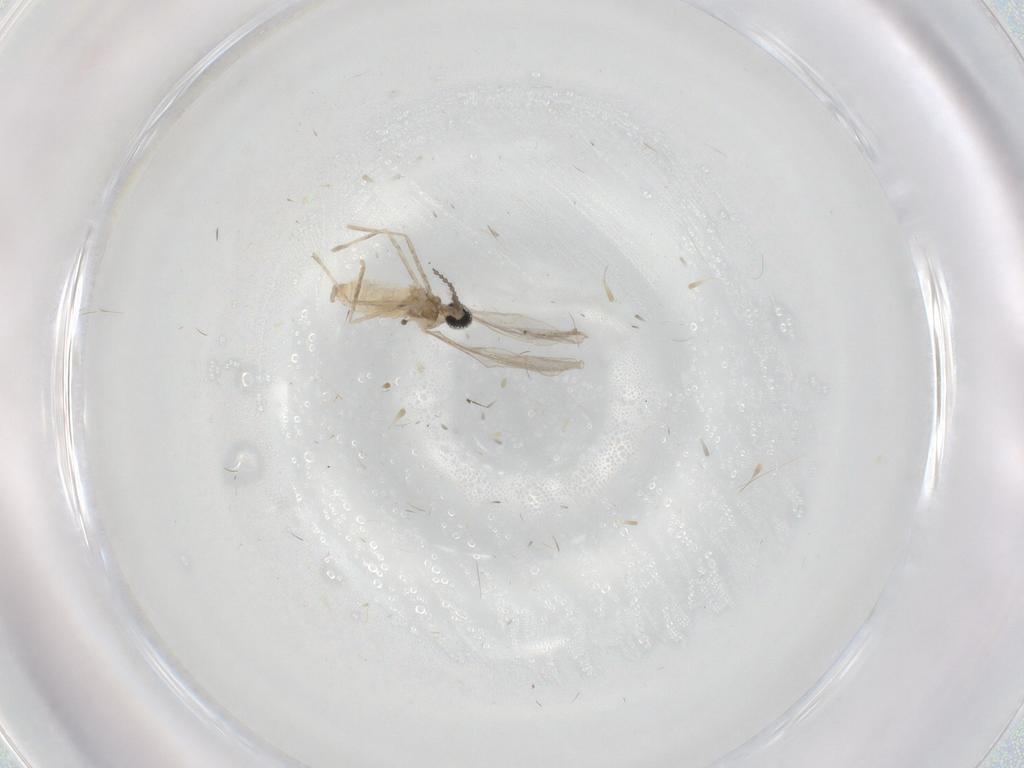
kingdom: Animalia
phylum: Arthropoda
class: Insecta
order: Diptera
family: Cecidomyiidae
